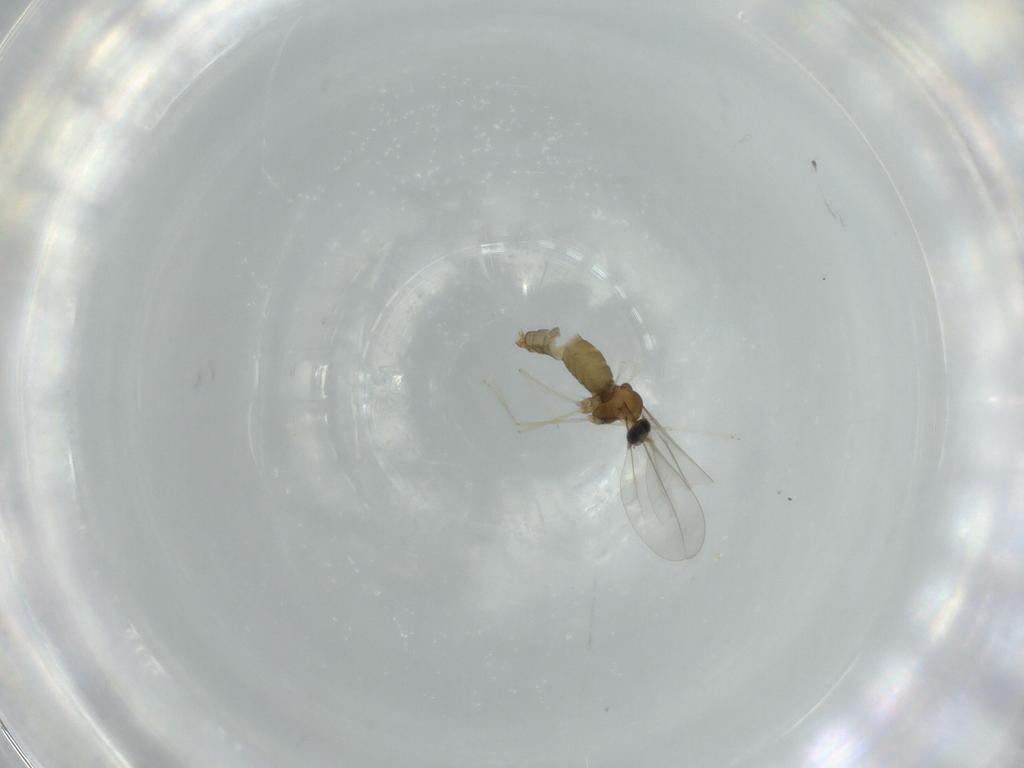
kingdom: Animalia
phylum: Arthropoda
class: Insecta
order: Diptera
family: Cecidomyiidae
